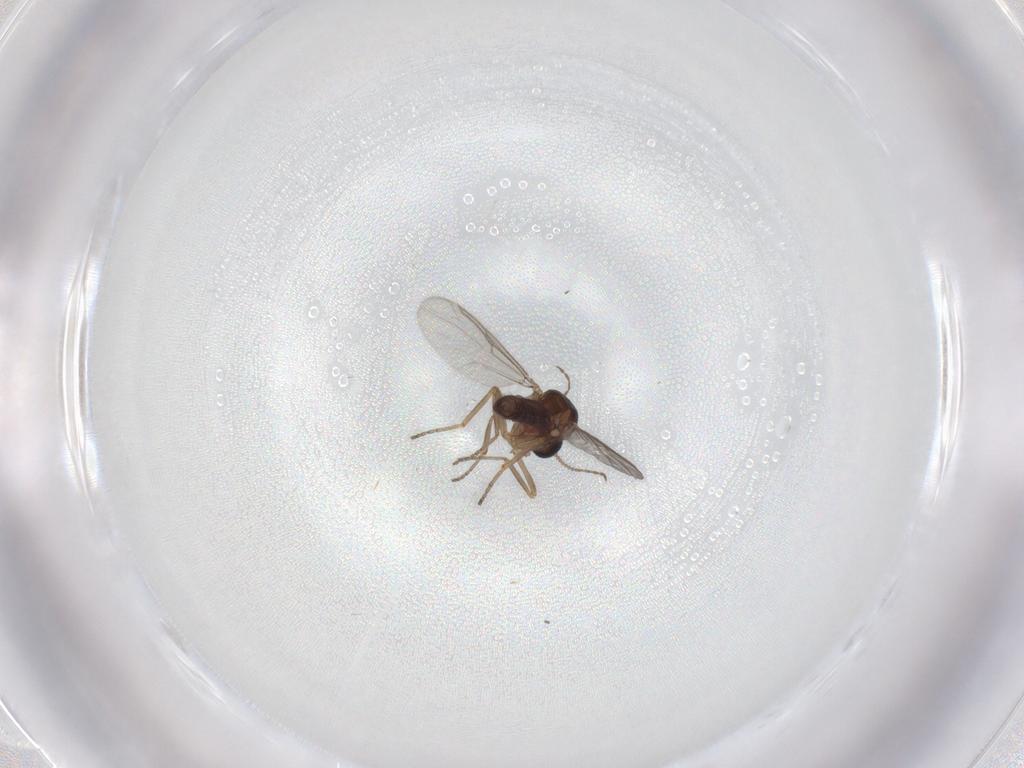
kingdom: Animalia
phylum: Arthropoda
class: Insecta
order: Diptera
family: Ceratopogonidae
